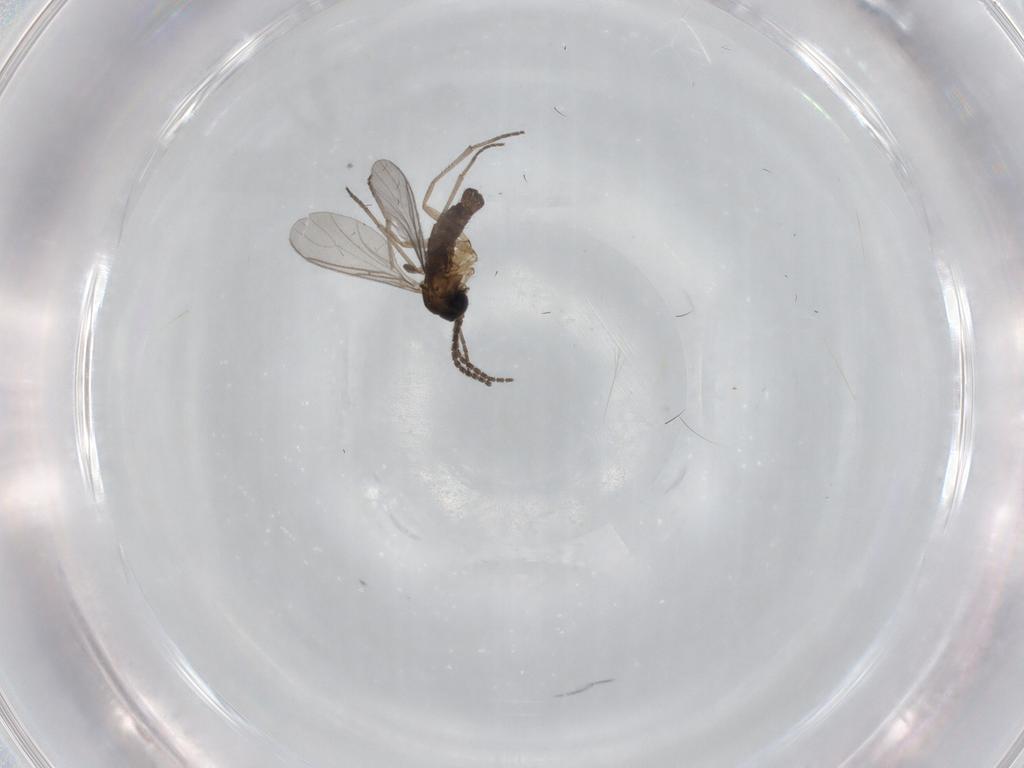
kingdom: Animalia
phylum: Arthropoda
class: Insecta
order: Diptera
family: Sciaridae
